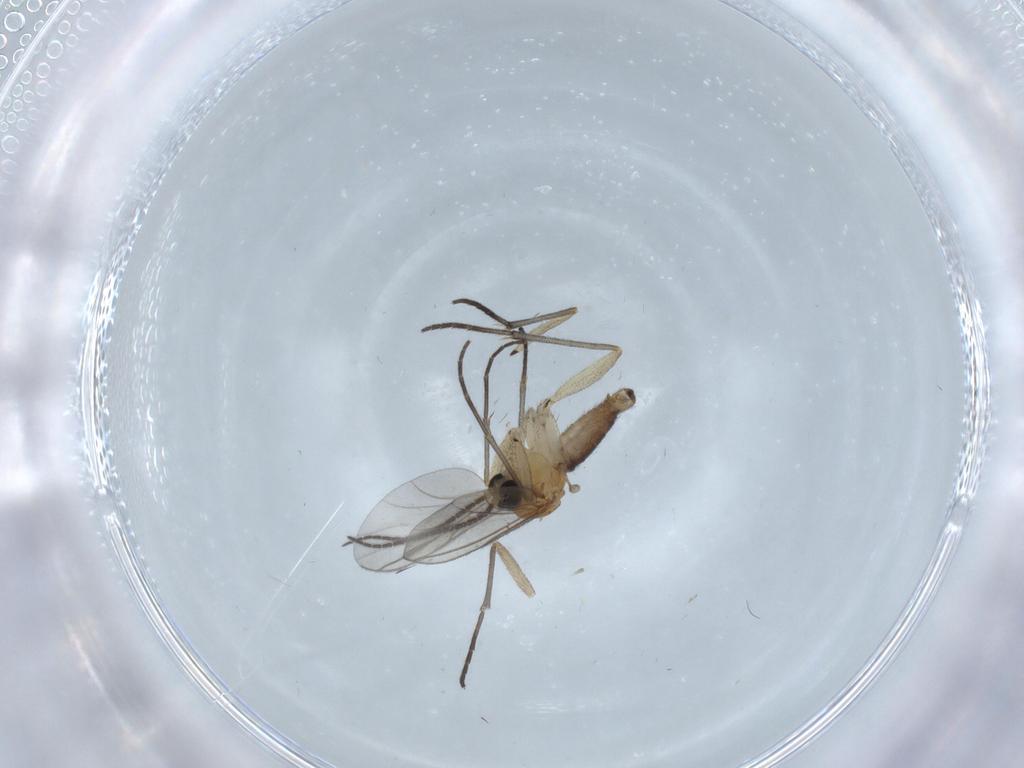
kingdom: Animalia
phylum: Arthropoda
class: Insecta
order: Diptera
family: Sciaridae
